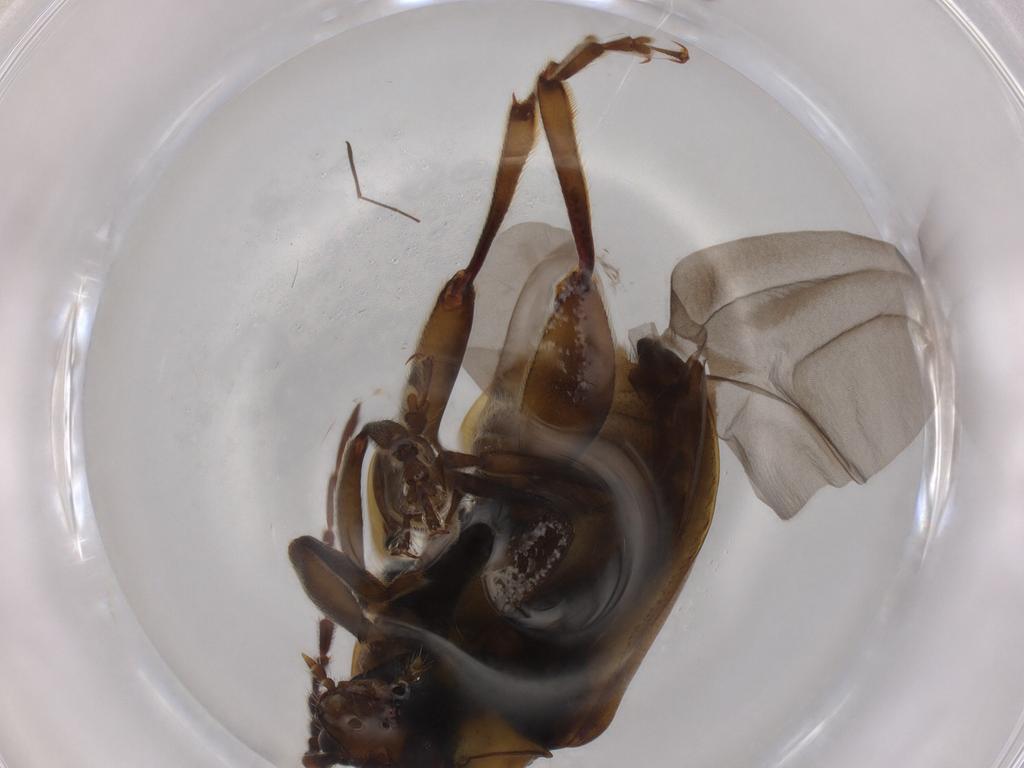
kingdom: Animalia
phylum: Arthropoda
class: Insecta
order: Coleoptera
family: Chrysomelidae
